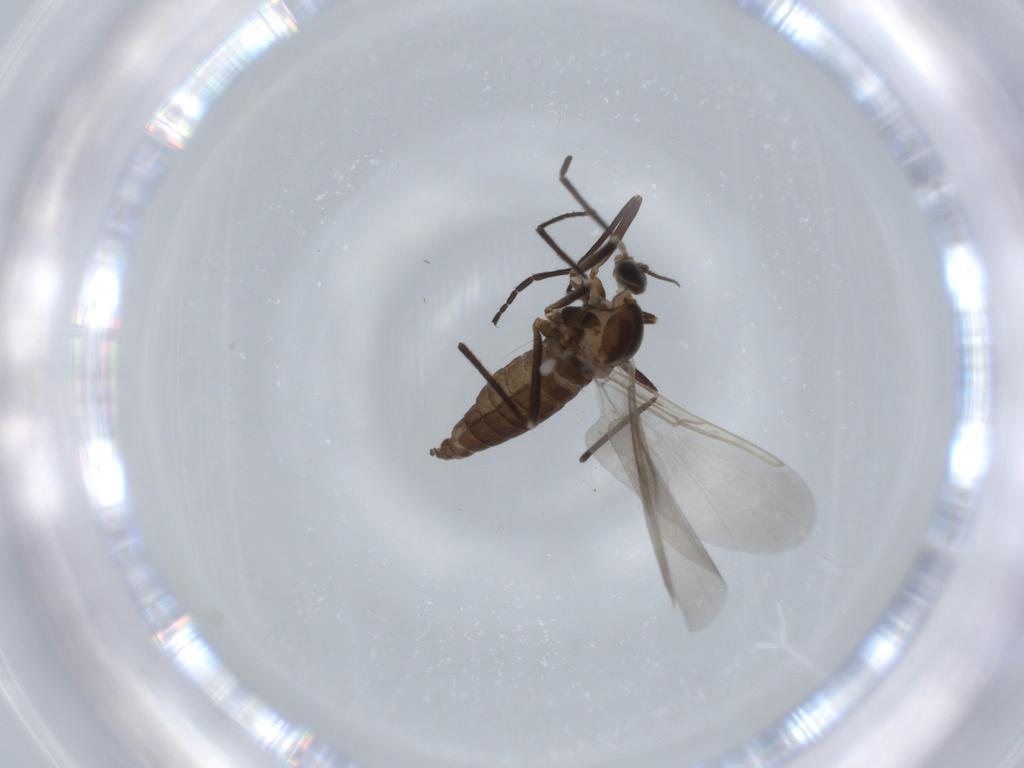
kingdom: Animalia
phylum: Arthropoda
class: Insecta
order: Diptera
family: Cecidomyiidae
